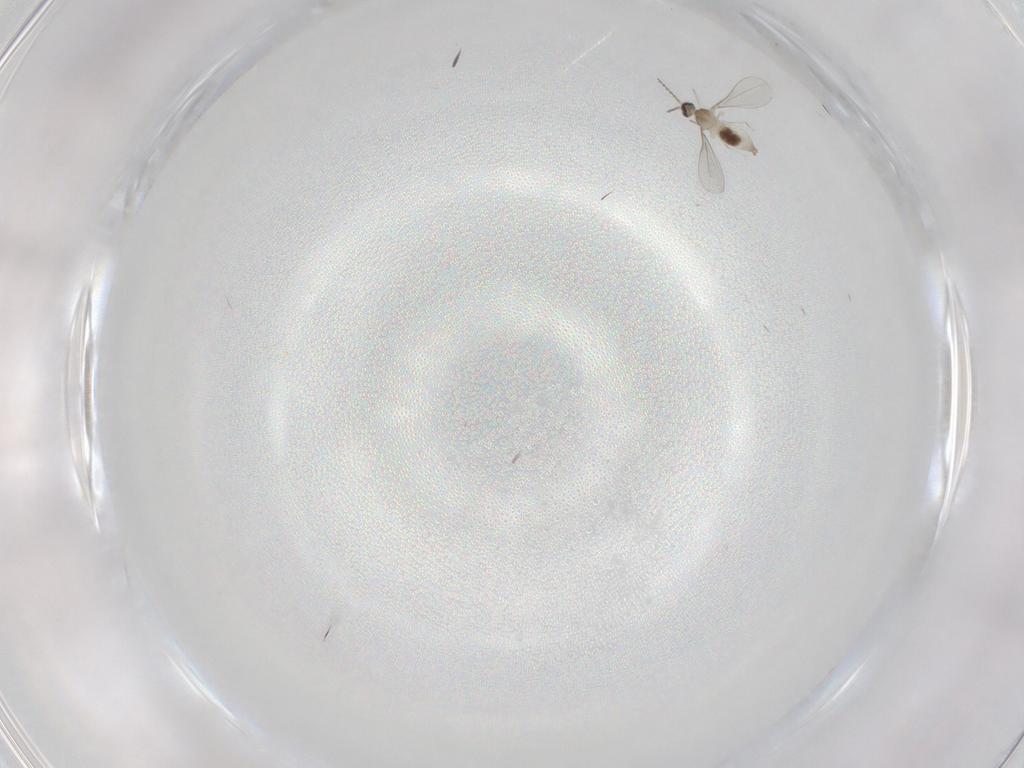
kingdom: Animalia
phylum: Arthropoda
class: Insecta
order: Diptera
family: Cecidomyiidae
